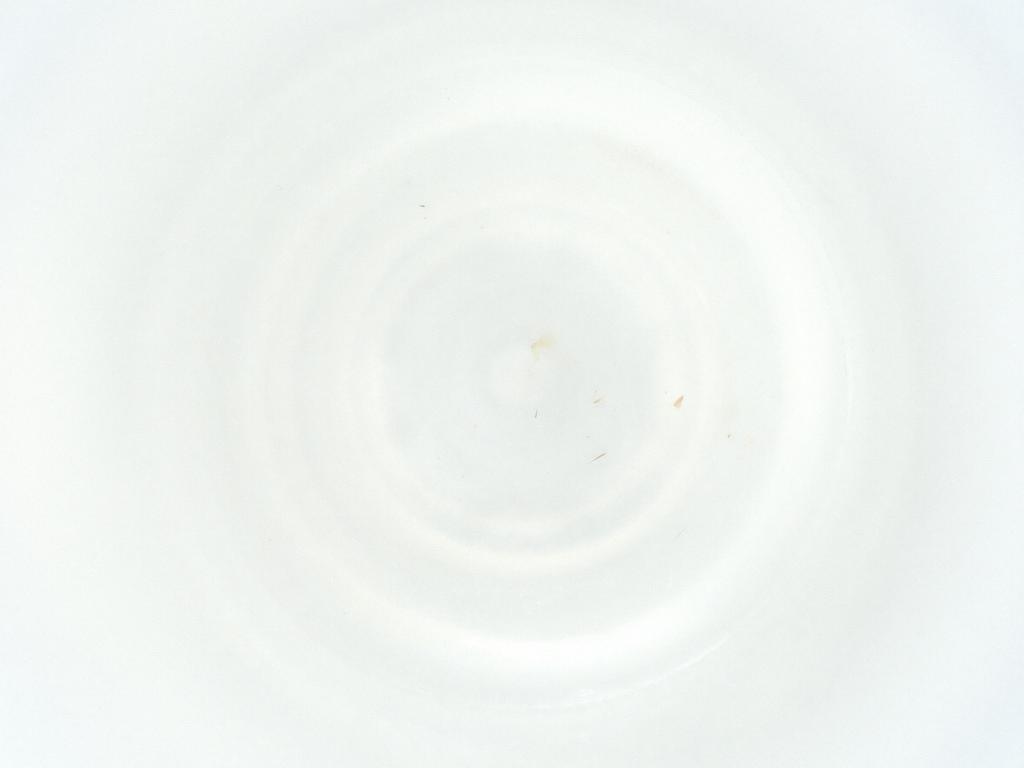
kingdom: Animalia
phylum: Arthropoda
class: Arachnida
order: Mesostigmata
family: Phytoseiidae
